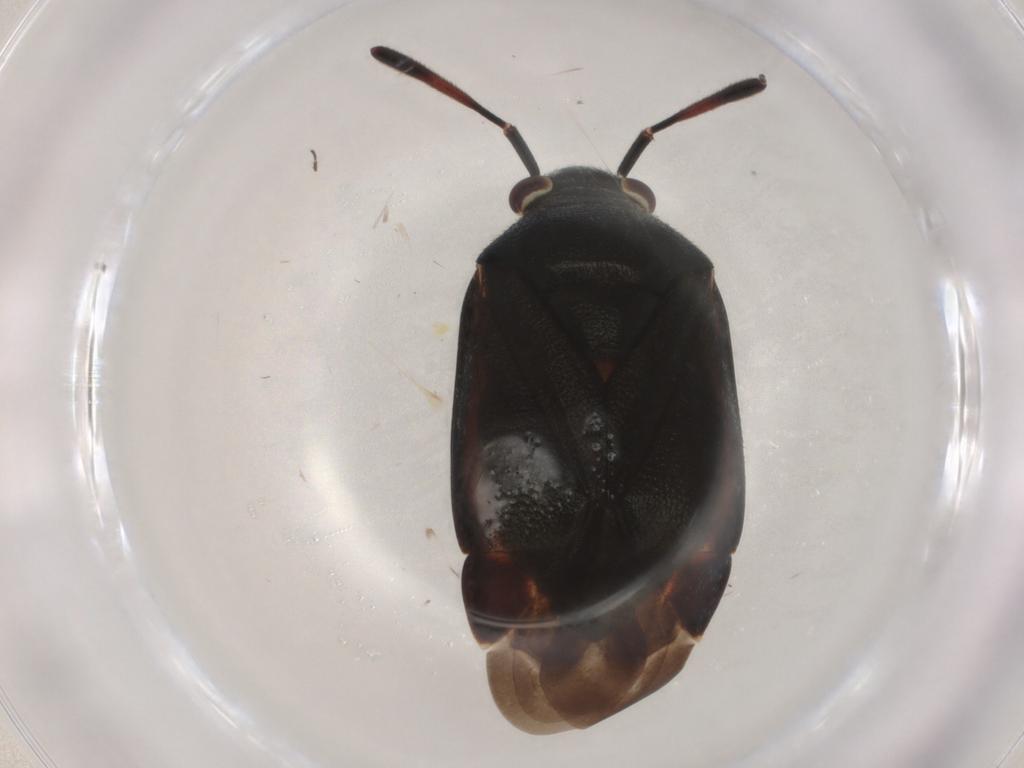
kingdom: Animalia
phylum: Arthropoda
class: Insecta
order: Hemiptera
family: Miridae
